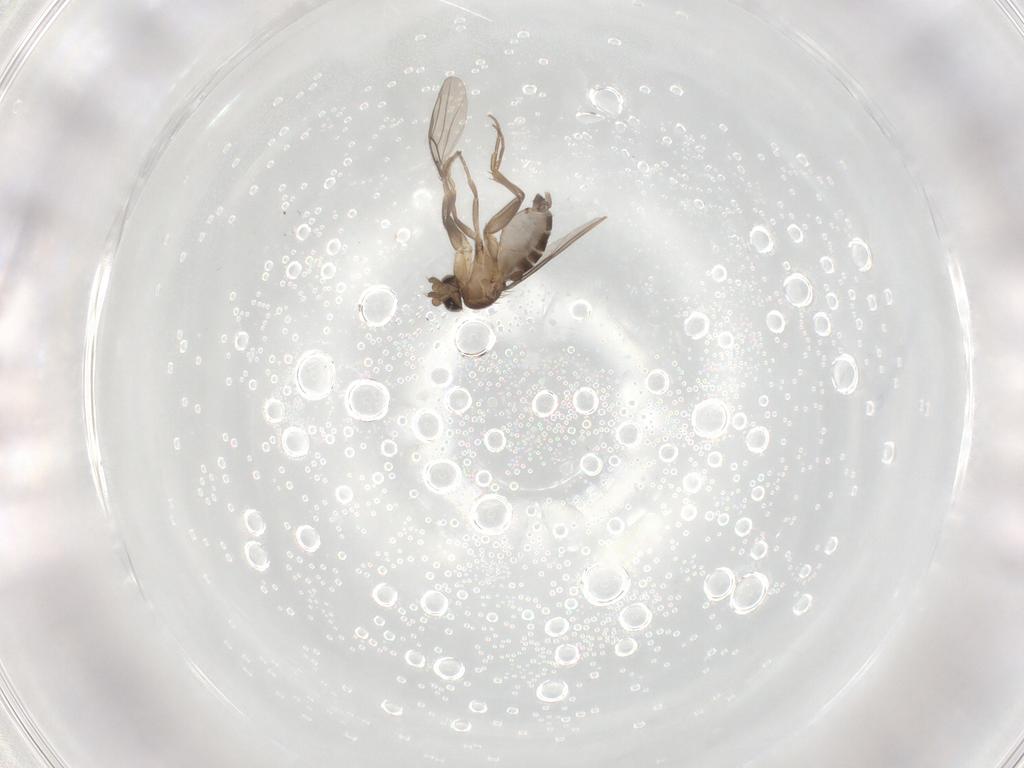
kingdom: Animalia
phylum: Arthropoda
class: Insecta
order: Diptera
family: Phoridae
